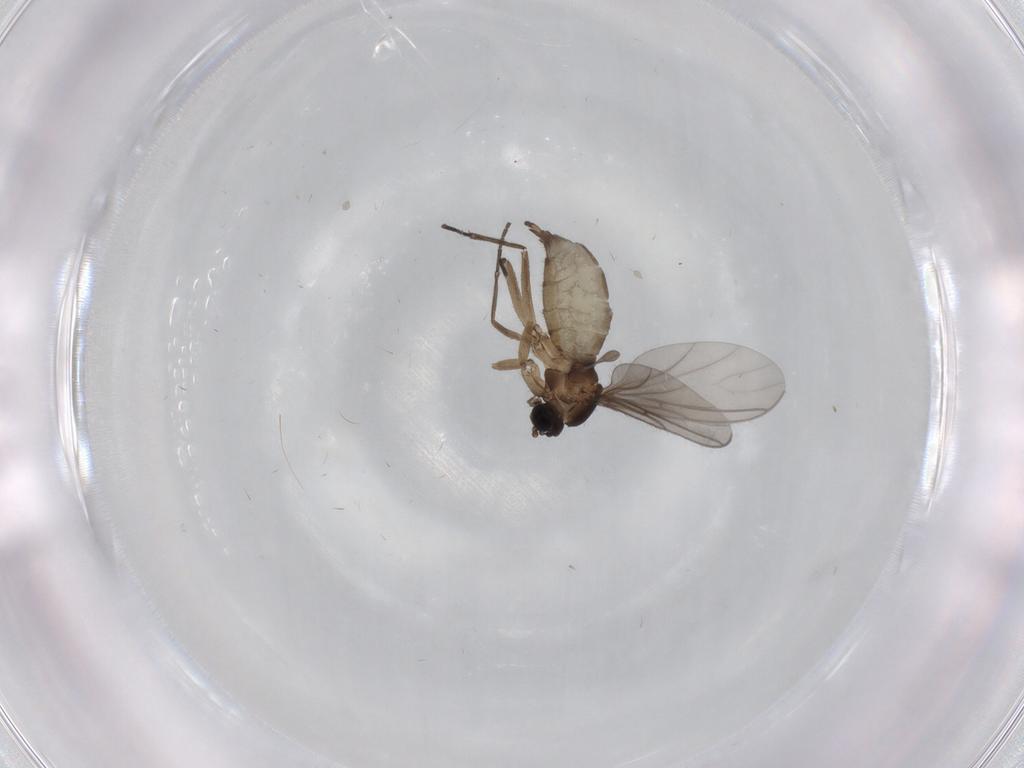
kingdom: Animalia
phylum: Arthropoda
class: Insecta
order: Diptera
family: Sciaridae
